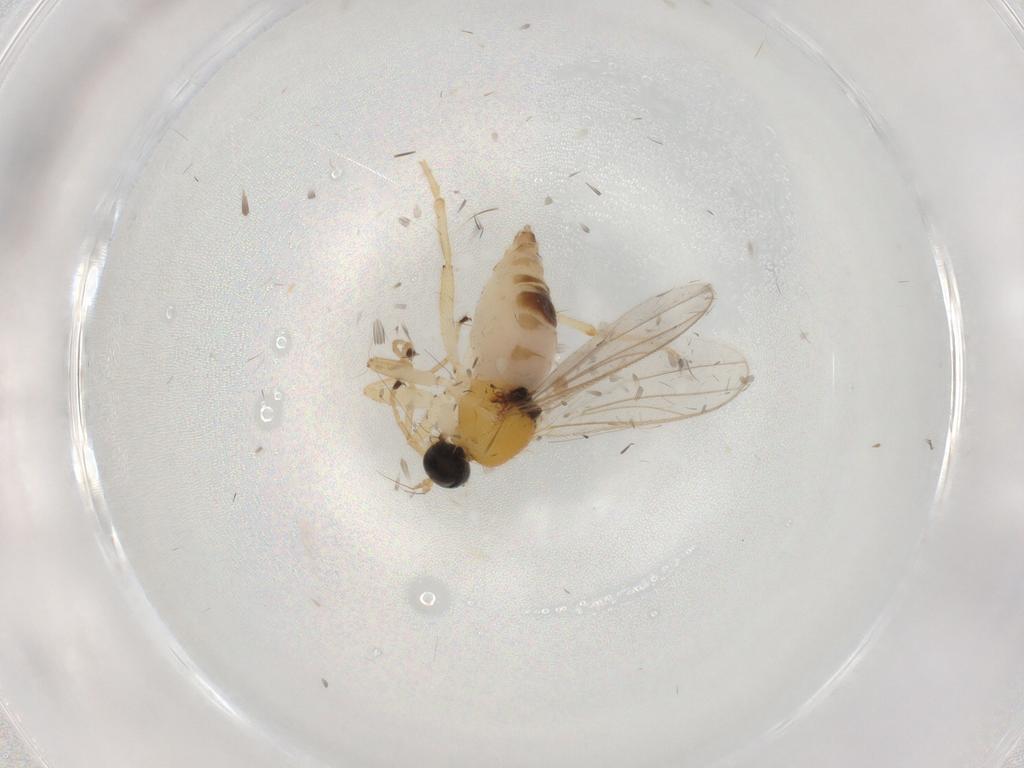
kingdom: Animalia
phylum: Arthropoda
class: Insecta
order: Diptera
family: Hybotidae
